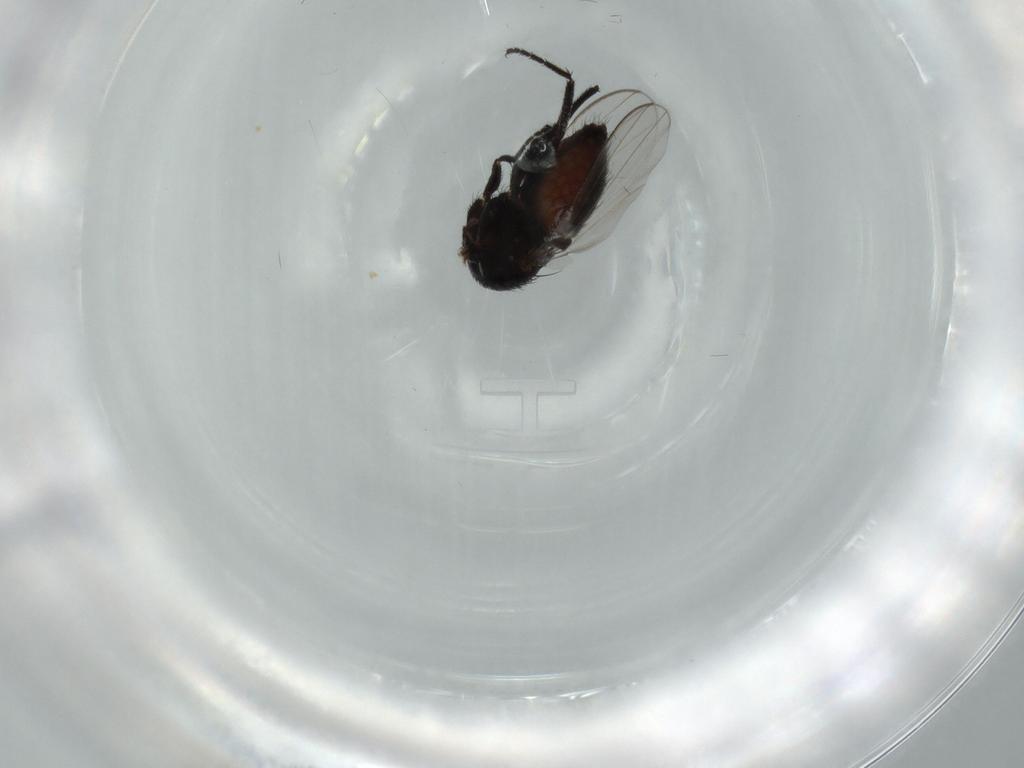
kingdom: Animalia
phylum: Arthropoda
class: Insecta
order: Diptera
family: Milichiidae
